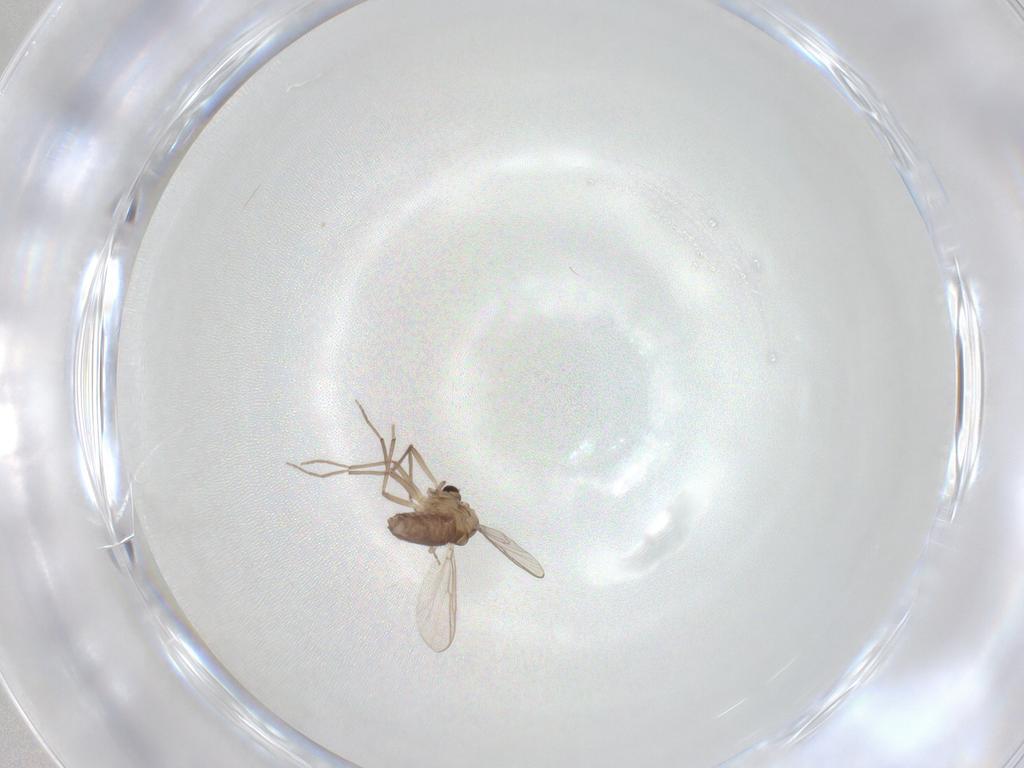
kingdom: Animalia
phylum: Arthropoda
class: Insecta
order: Diptera
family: Chironomidae
